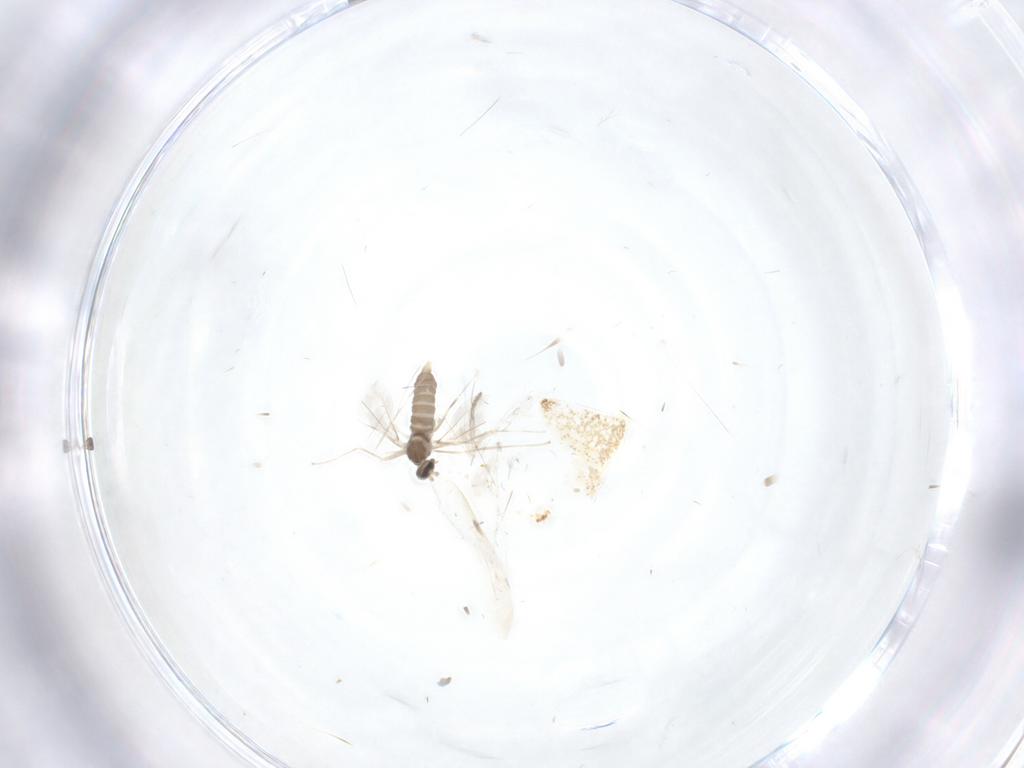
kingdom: Animalia
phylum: Arthropoda
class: Insecta
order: Diptera
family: Cecidomyiidae
